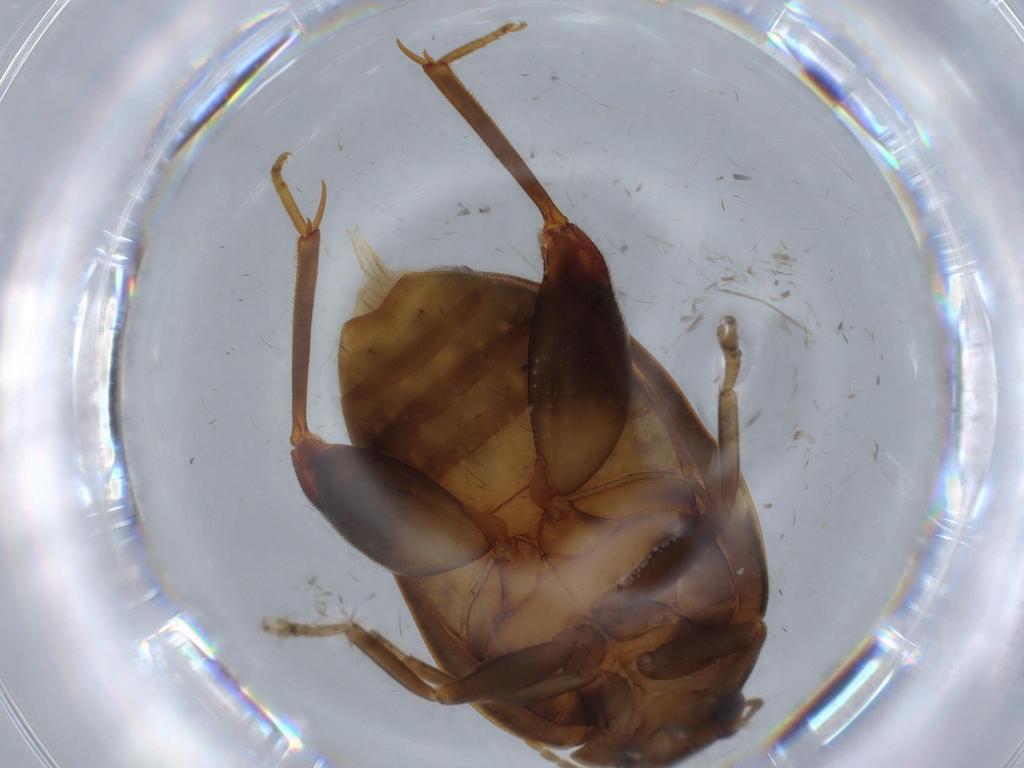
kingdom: Animalia
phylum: Arthropoda
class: Insecta
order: Coleoptera
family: Scirtidae
